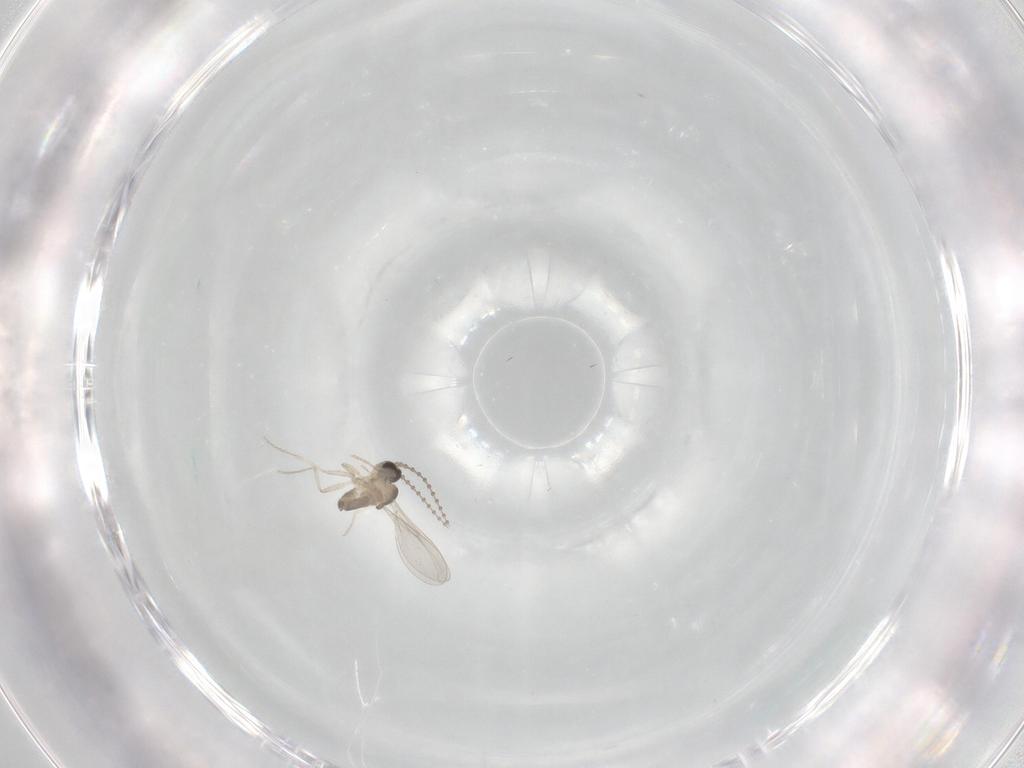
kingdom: Animalia
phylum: Arthropoda
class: Insecta
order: Diptera
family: Cecidomyiidae
